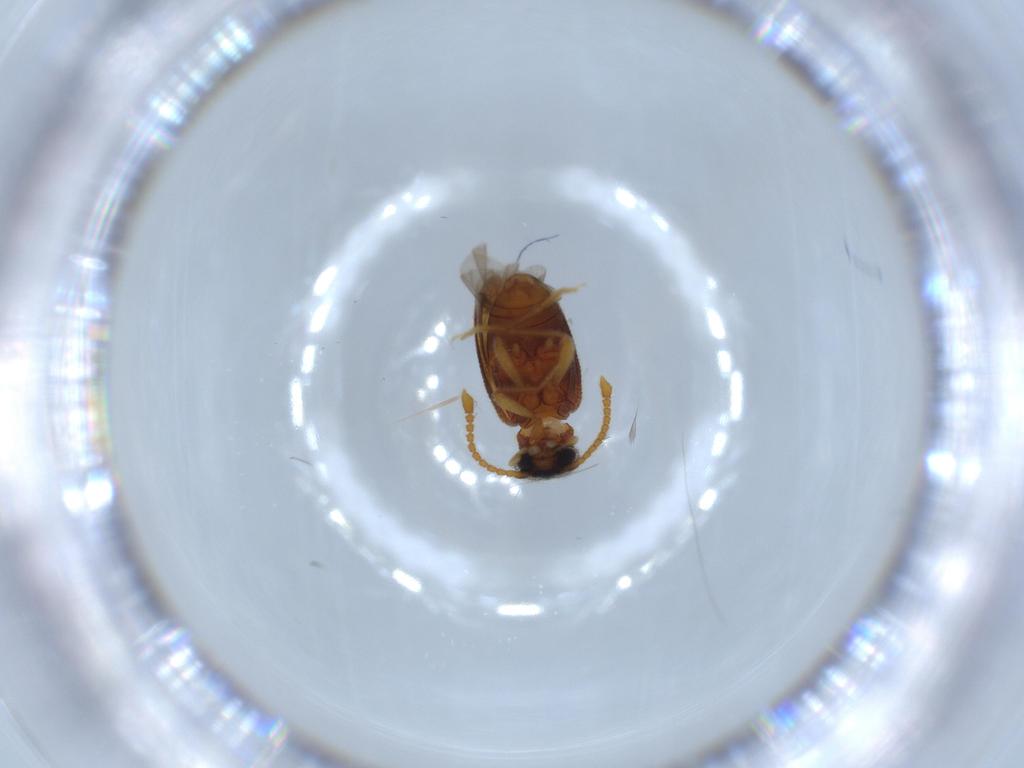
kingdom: Animalia
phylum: Arthropoda
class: Insecta
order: Coleoptera
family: Aderidae
